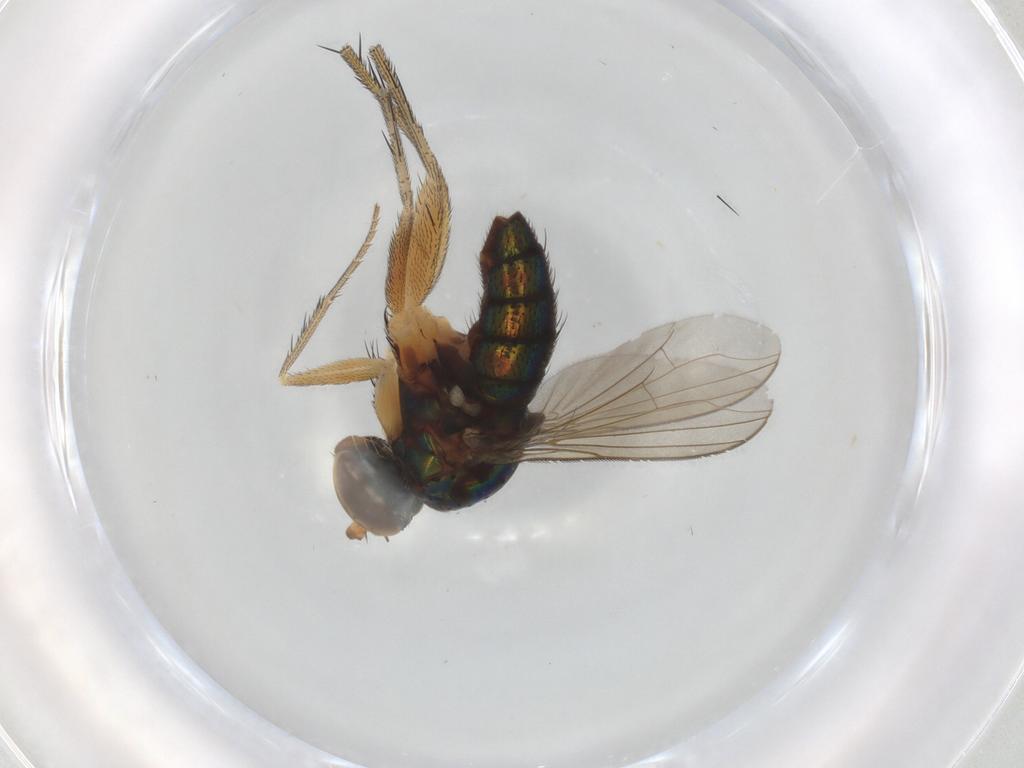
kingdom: Animalia
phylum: Arthropoda
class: Insecta
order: Diptera
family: Dolichopodidae
